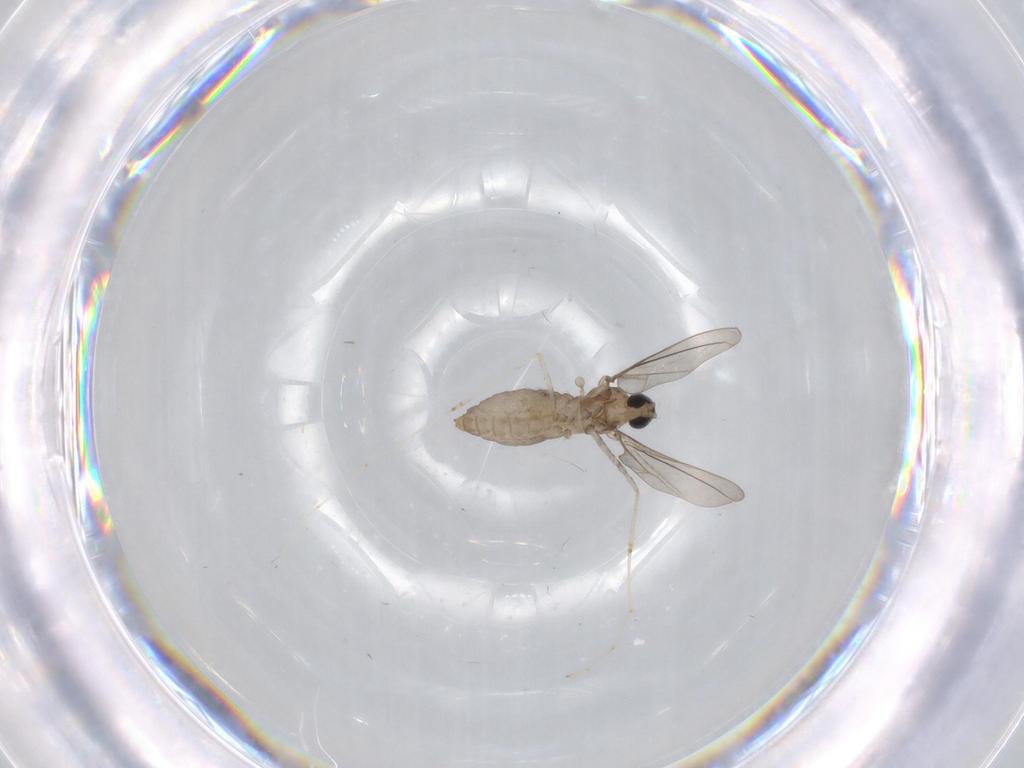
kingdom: Animalia
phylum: Arthropoda
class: Insecta
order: Diptera
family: Cecidomyiidae
